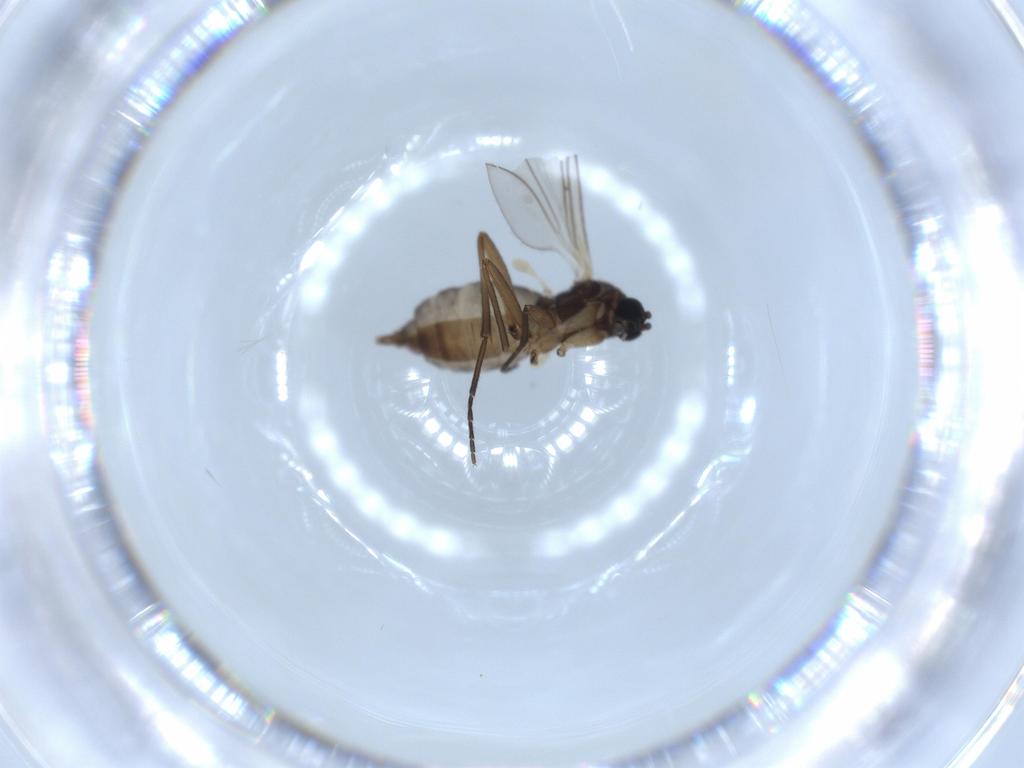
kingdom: Animalia
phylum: Arthropoda
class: Insecta
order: Diptera
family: Sciaridae
